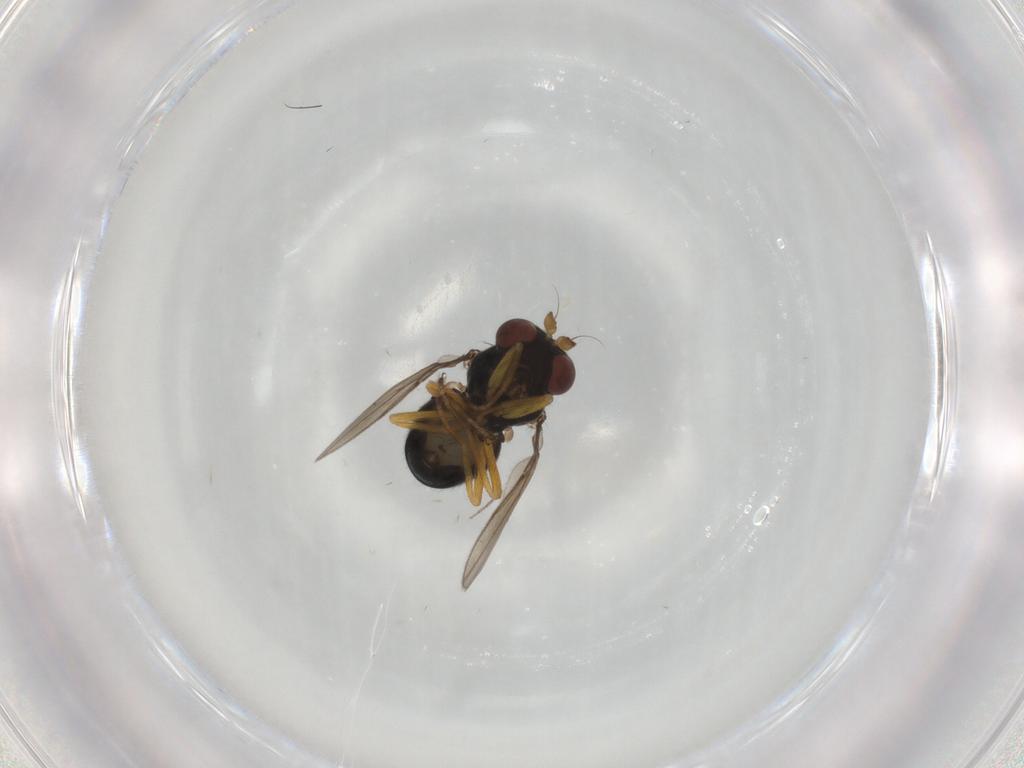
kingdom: Animalia
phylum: Arthropoda
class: Insecta
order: Diptera
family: Ephydridae
